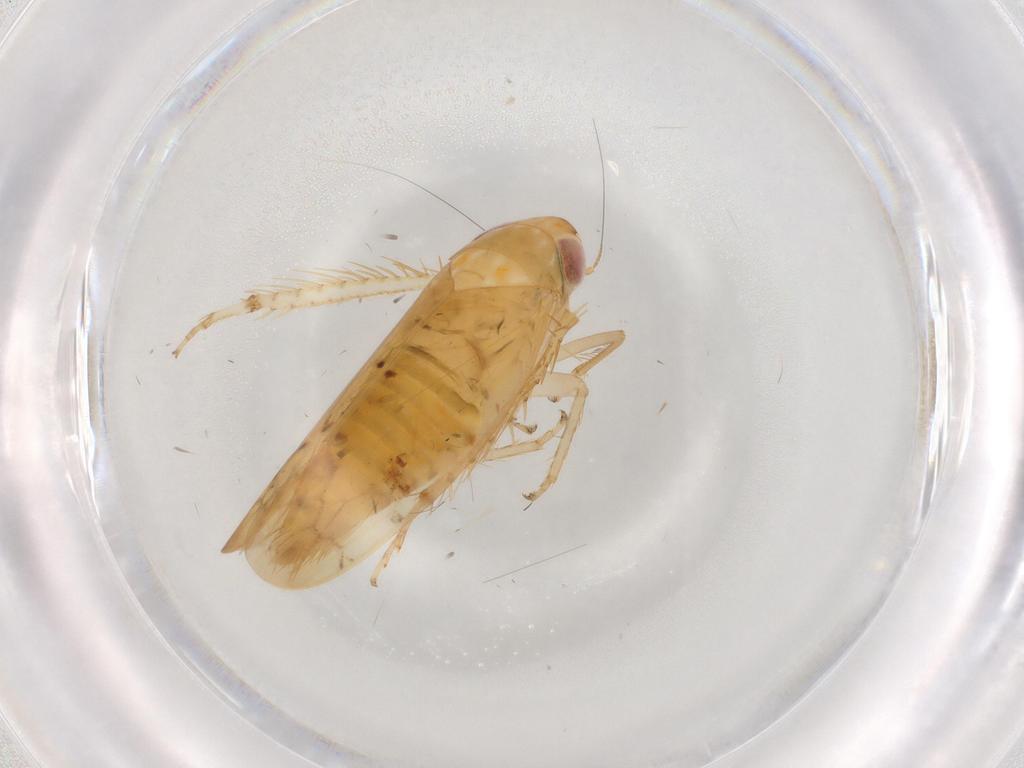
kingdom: Animalia
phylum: Arthropoda
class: Insecta
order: Hemiptera
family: Cicadellidae
